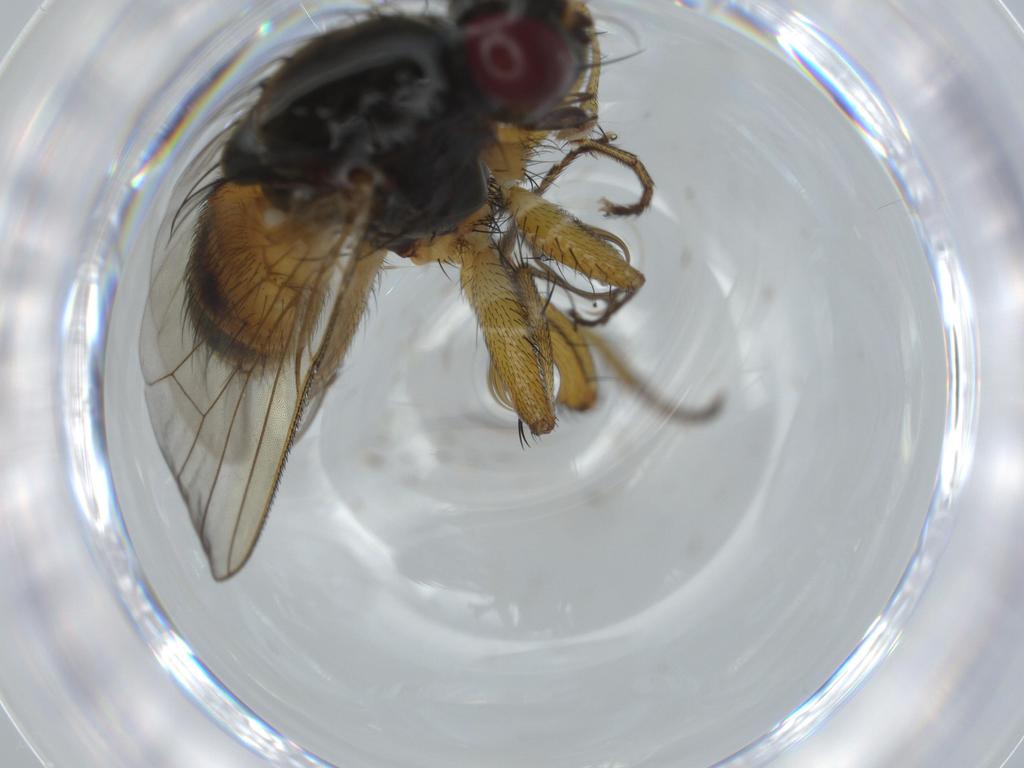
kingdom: Animalia
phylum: Arthropoda
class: Insecta
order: Diptera
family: Muscidae
